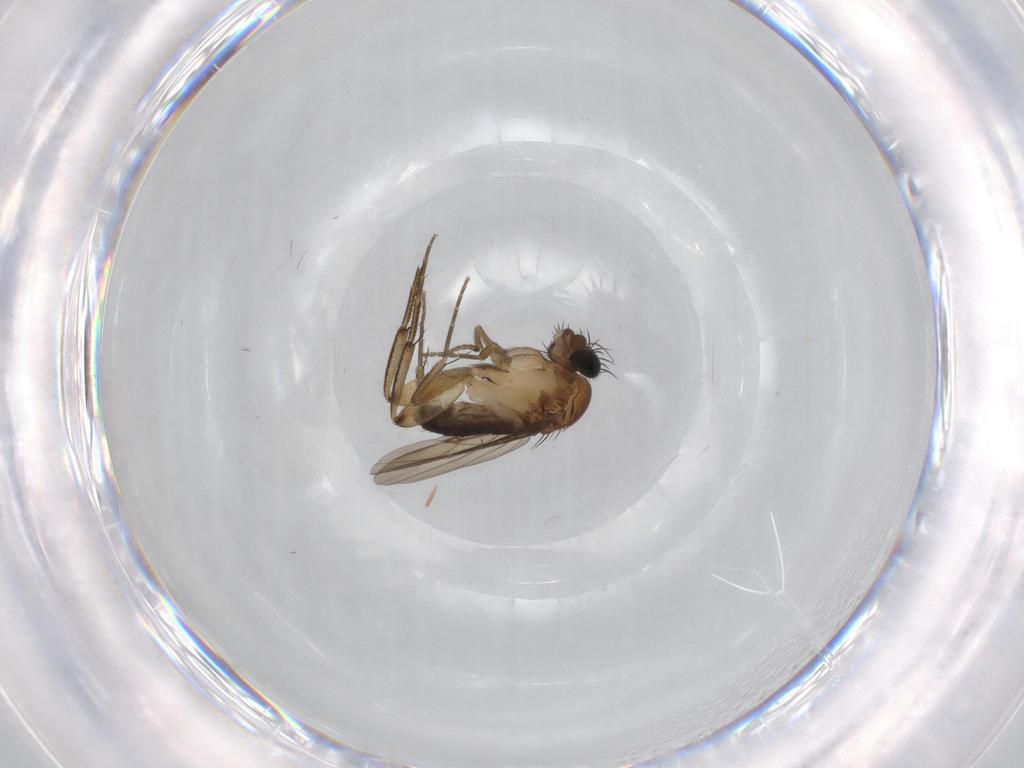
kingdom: Animalia
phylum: Arthropoda
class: Insecta
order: Diptera
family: Phoridae
